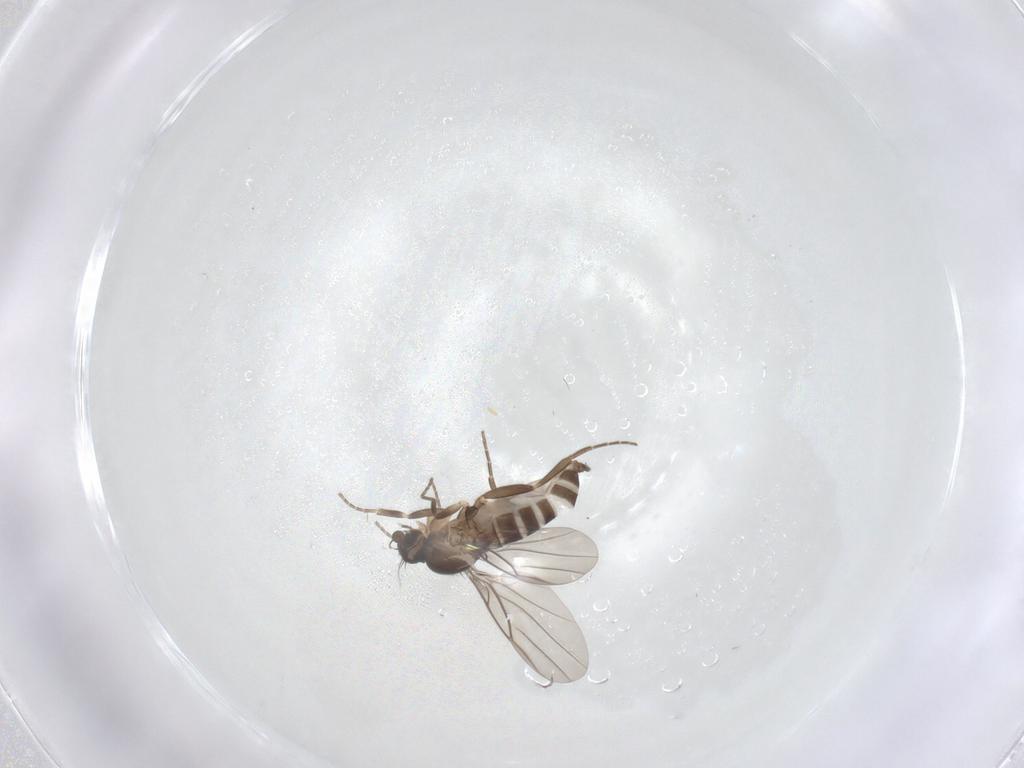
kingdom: Animalia
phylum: Arthropoda
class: Insecta
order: Diptera
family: Phoridae
